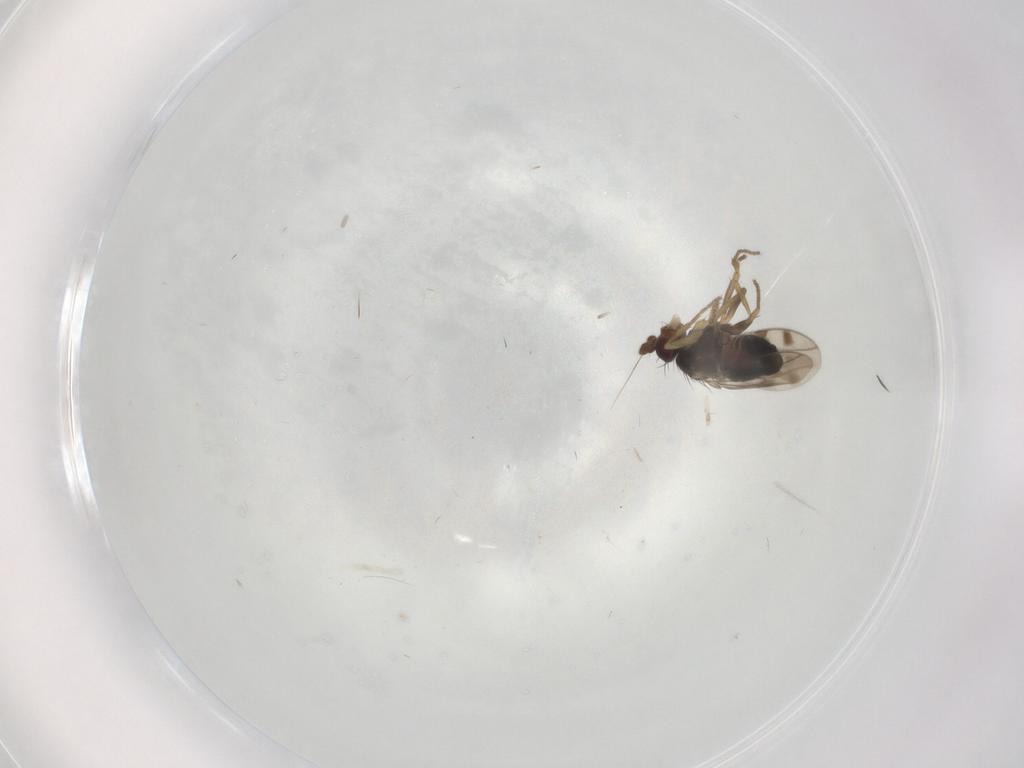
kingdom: Animalia
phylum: Arthropoda
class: Insecta
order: Diptera
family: Sphaeroceridae
